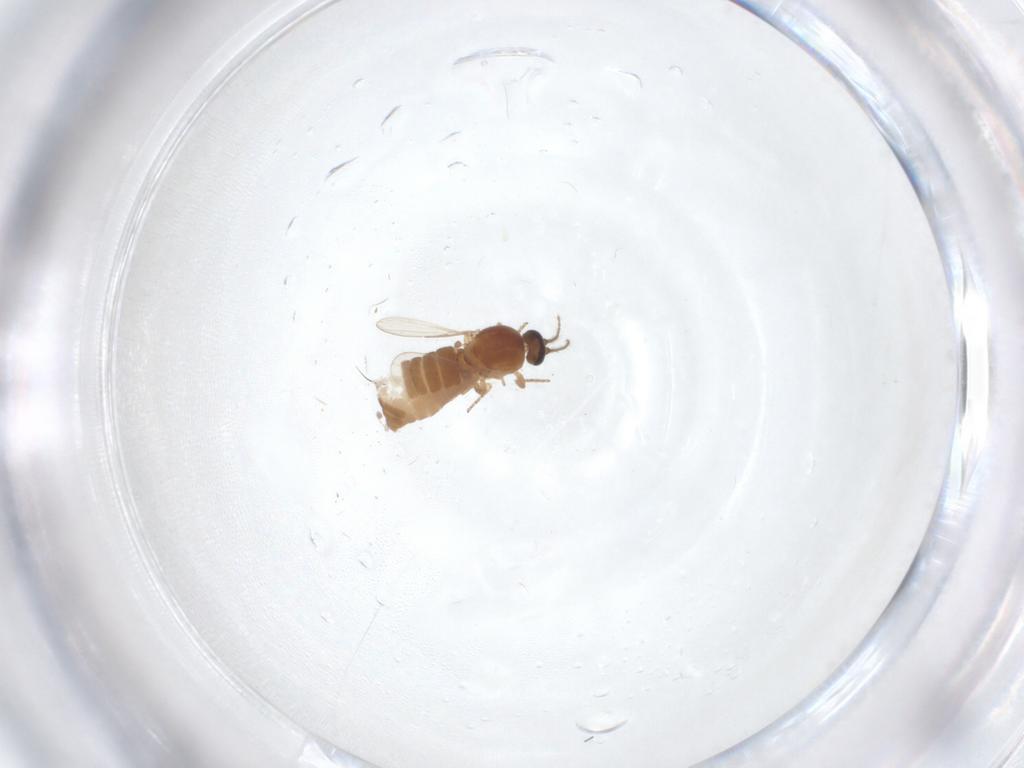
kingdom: Animalia
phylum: Arthropoda
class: Insecta
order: Diptera
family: Ceratopogonidae
